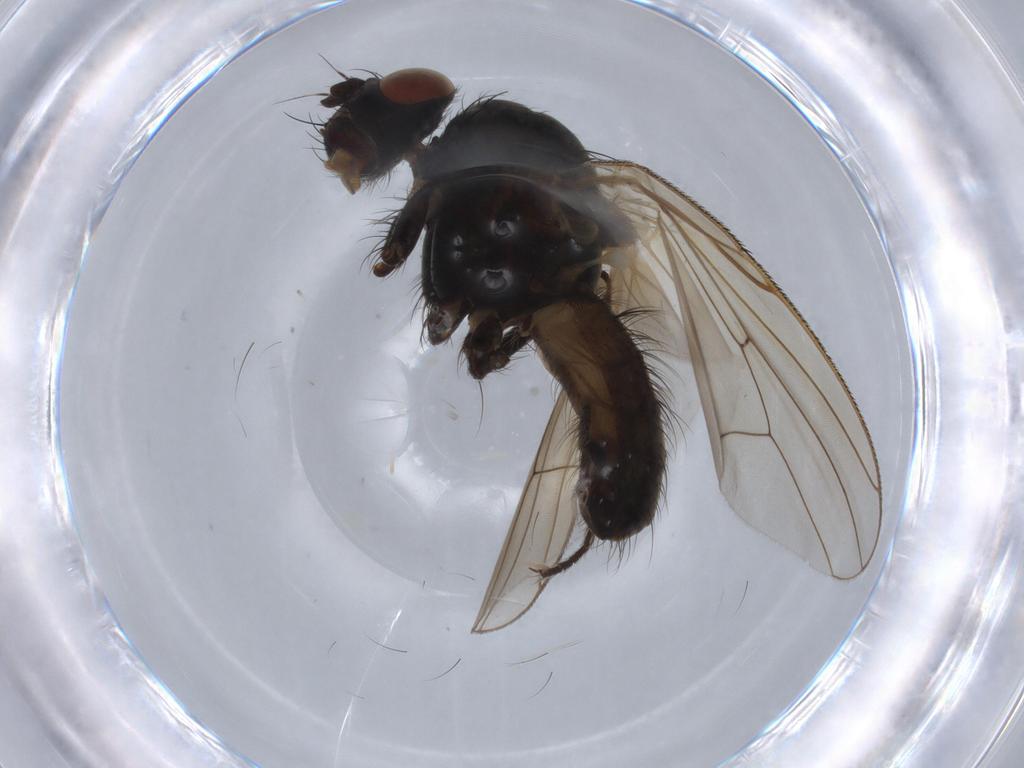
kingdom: Animalia
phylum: Arthropoda
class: Insecta
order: Diptera
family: Anthomyiidae
